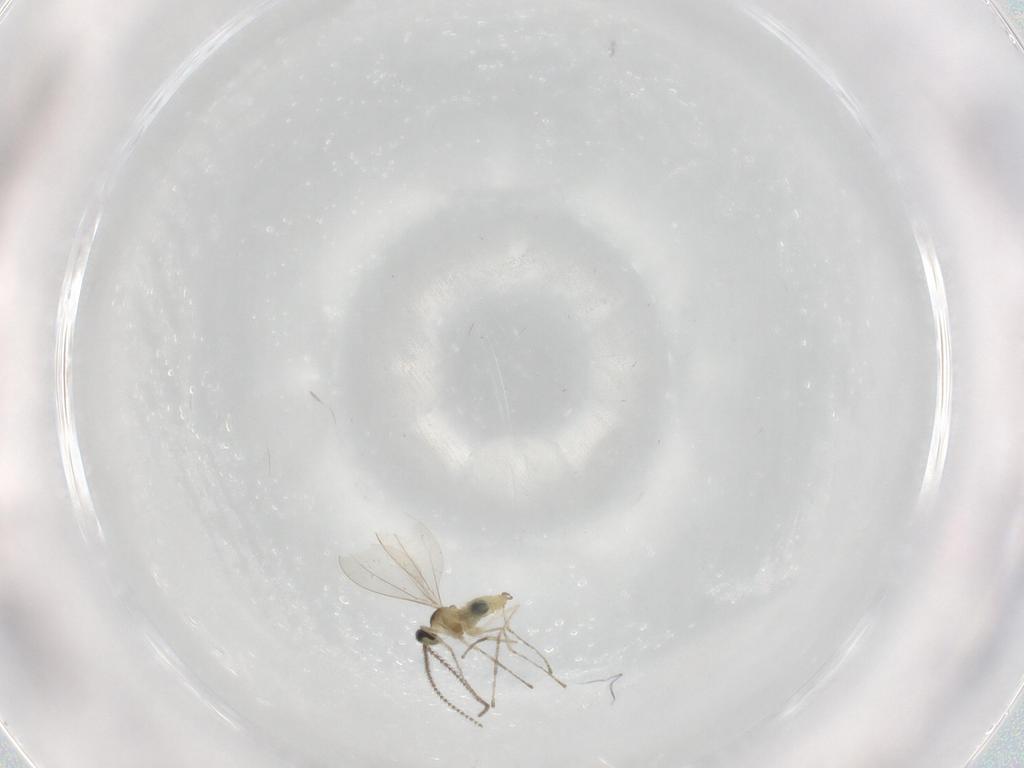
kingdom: Animalia
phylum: Arthropoda
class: Insecta
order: Diptera
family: Cecidomyiidae
